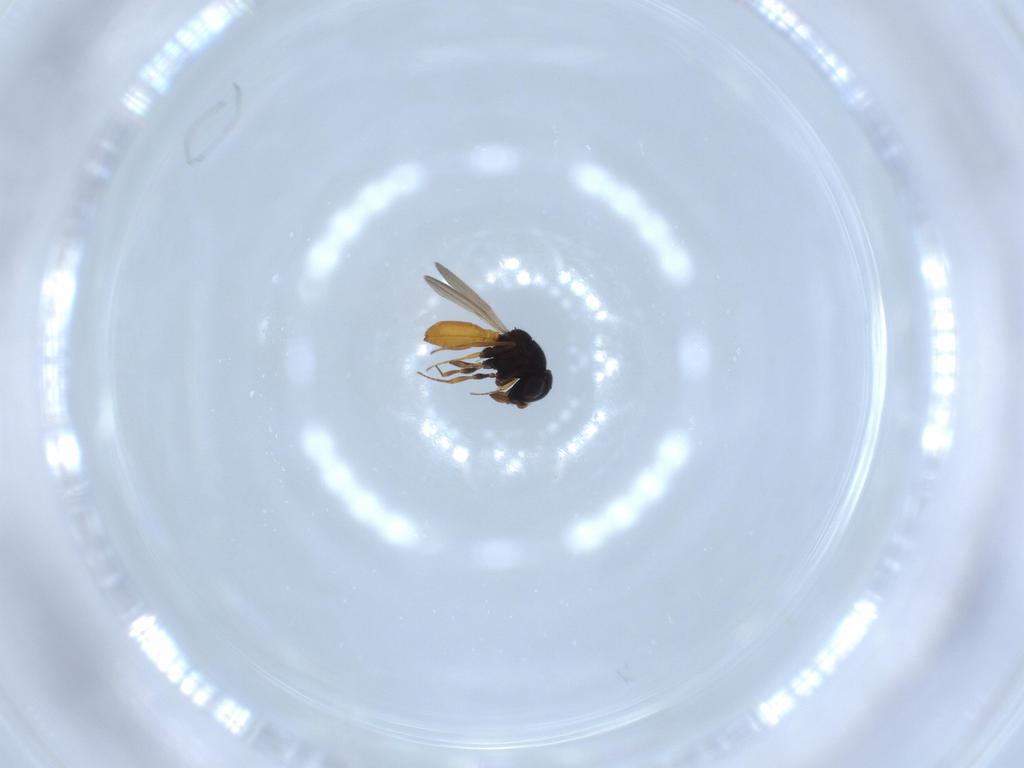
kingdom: Animalia
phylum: Arthropoda
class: Insecta
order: Hymenoptera
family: Scelionidae
